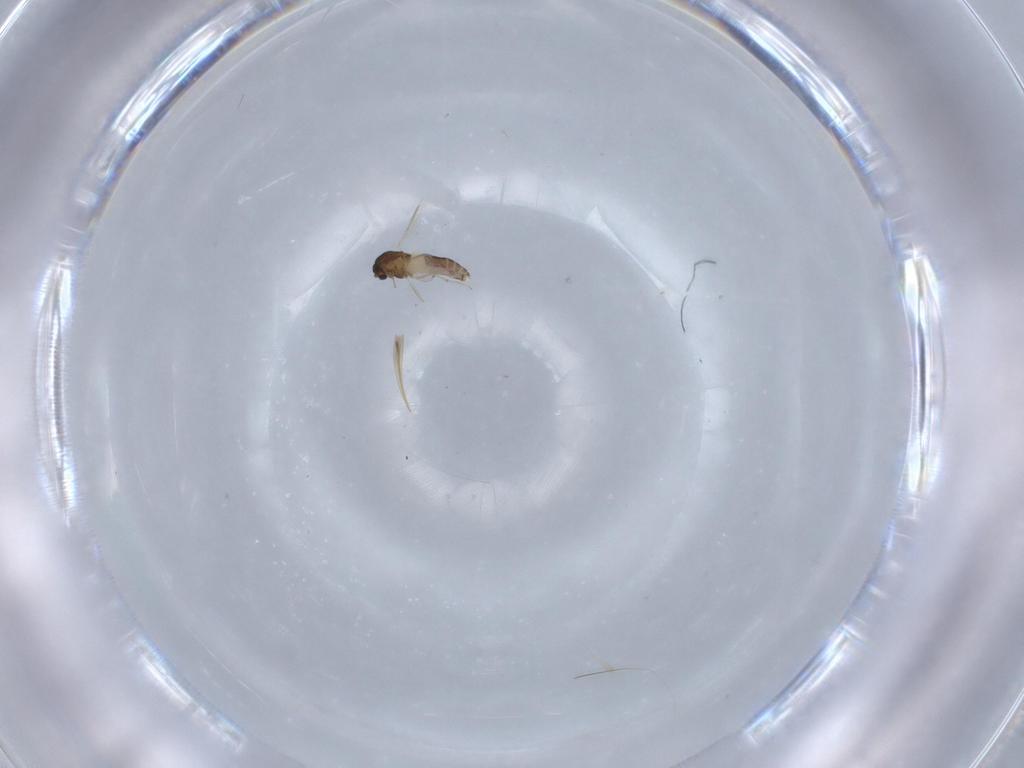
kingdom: Animalia
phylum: Arthropoda
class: Insecta
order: Diptera
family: Chironomidae
